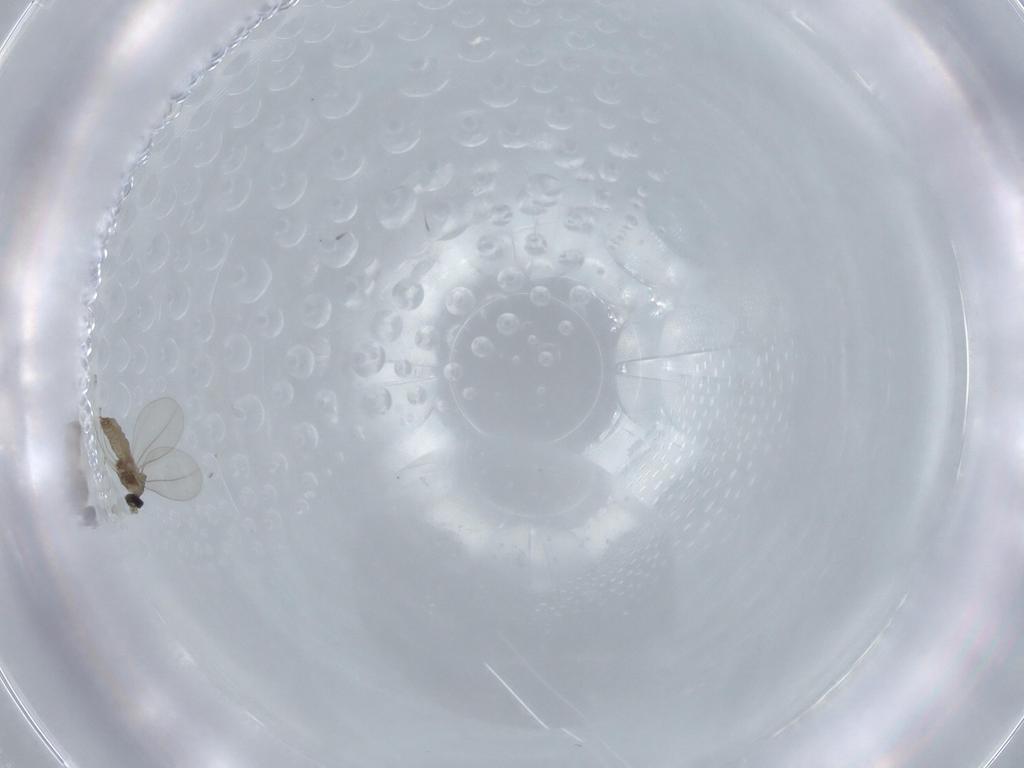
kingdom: Animalia
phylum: Arthropoda
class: Insecta
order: Diptera
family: Cecidomyiidae
